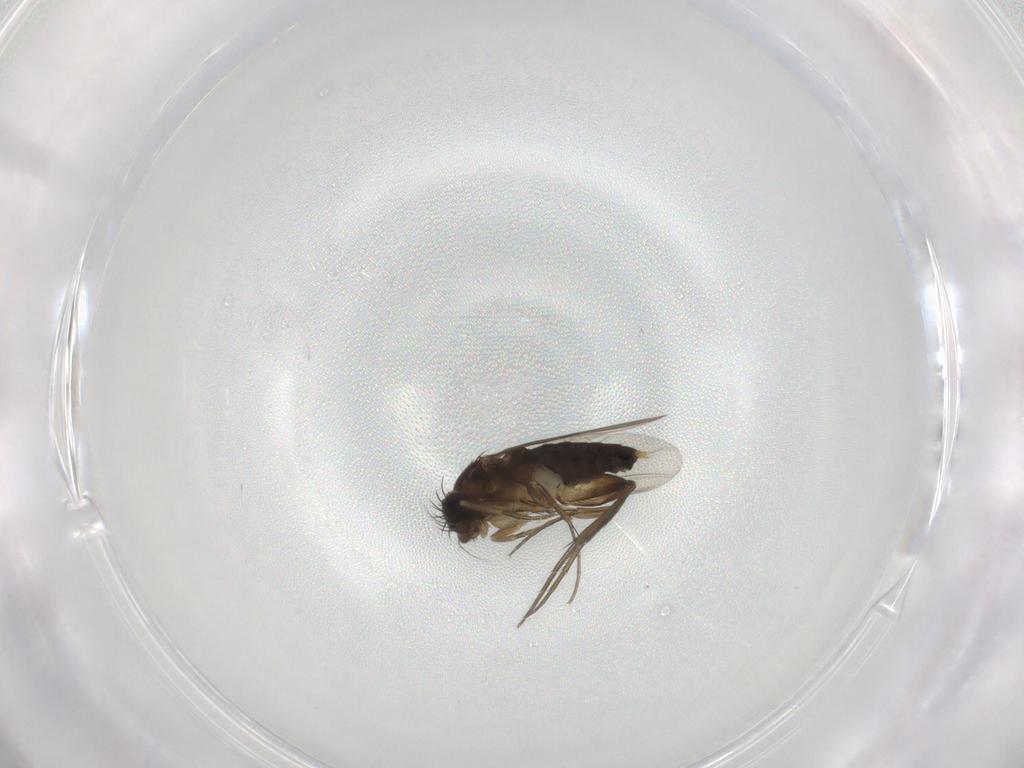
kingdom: Animalia
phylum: Arthropoda
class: Insecta
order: Diptera
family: Phoridae
